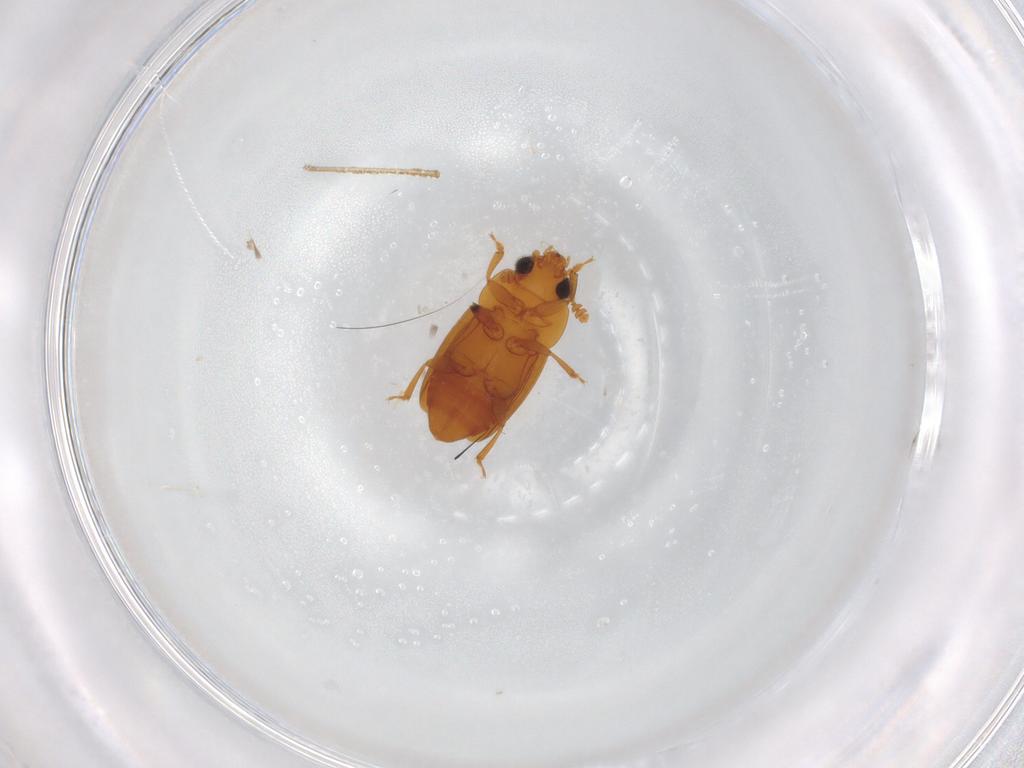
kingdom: Animalia
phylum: Arthropoda
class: Insecta
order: Coleoptera
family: Nitidulidae
